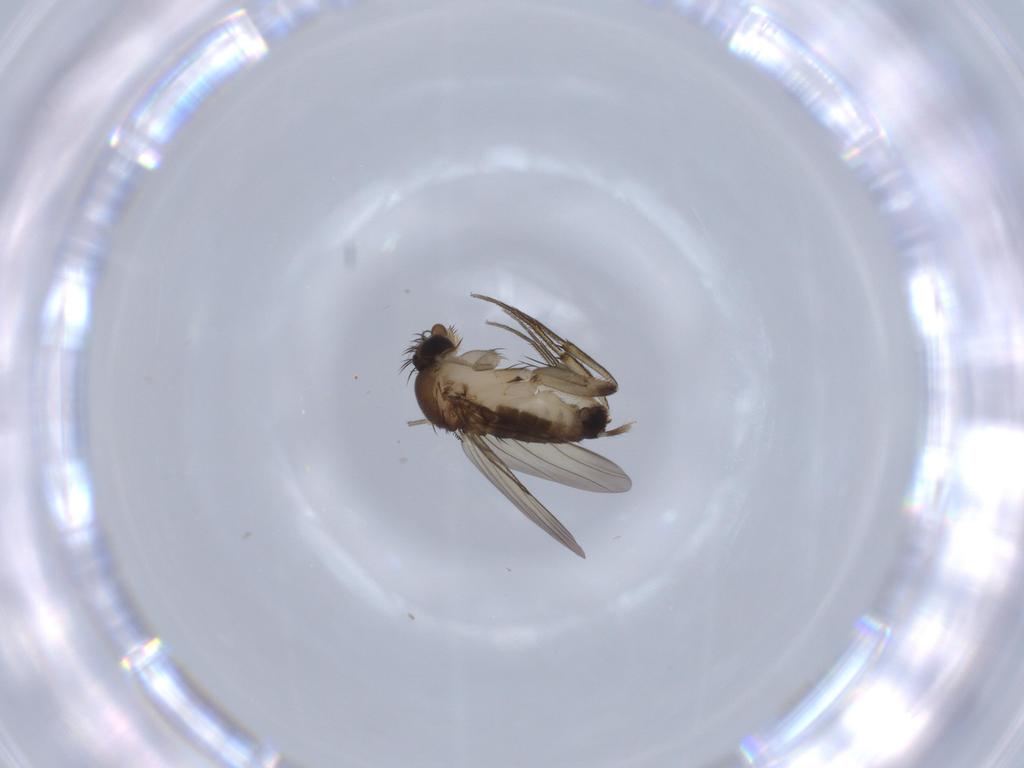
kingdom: Animalia
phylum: Arthropoda
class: Insecta
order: Diptera
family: Phoridae
